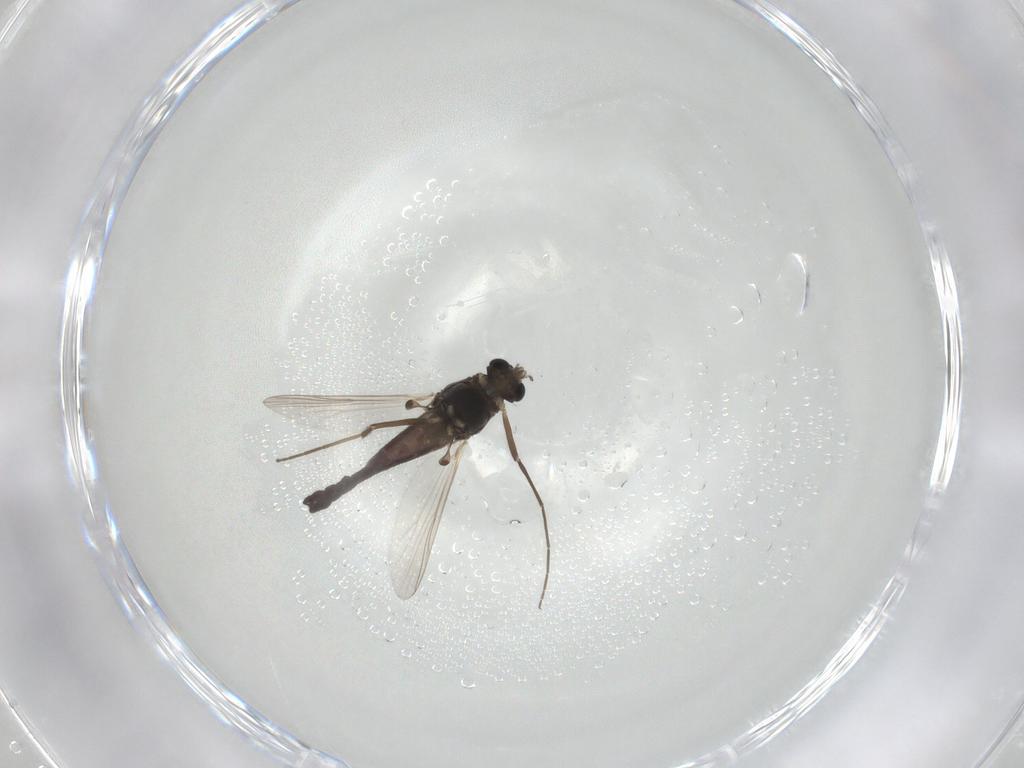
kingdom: Animalia
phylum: Arthropoda
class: Insecta
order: Diptera
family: Chironomidae
